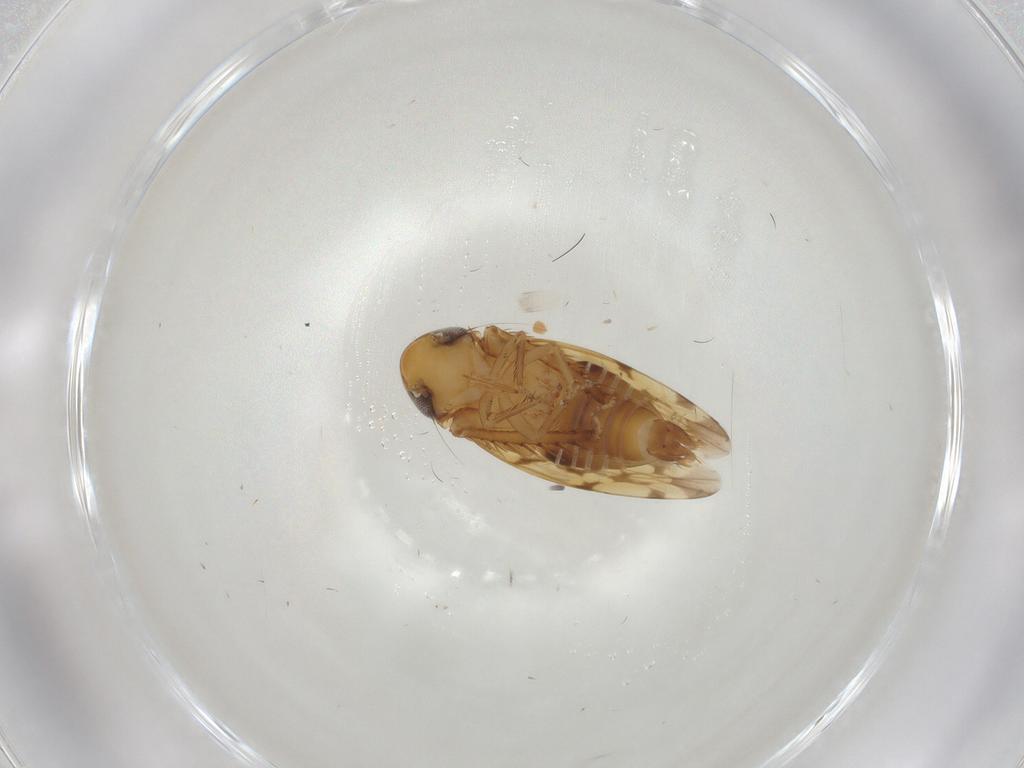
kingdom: Animalia
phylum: Arthropoda
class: Insecta
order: Hemiptera
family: Cicadellidae
